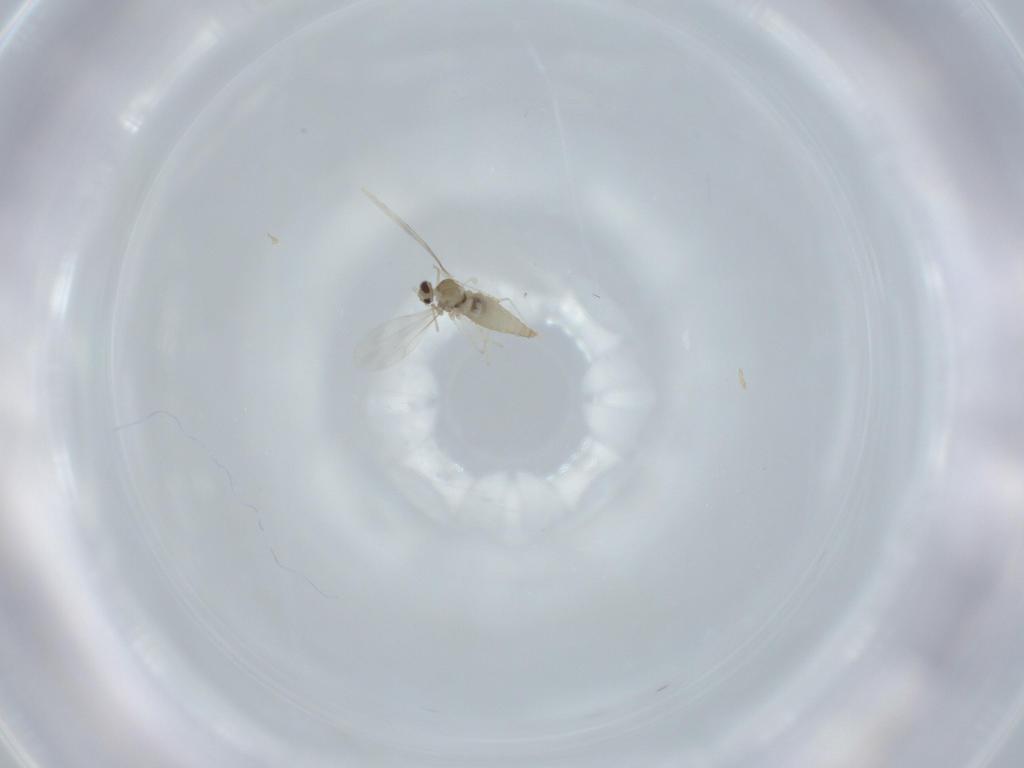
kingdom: Animalia
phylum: Arthropoda
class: Insecta
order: Diptera
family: Cecidomyiidae
